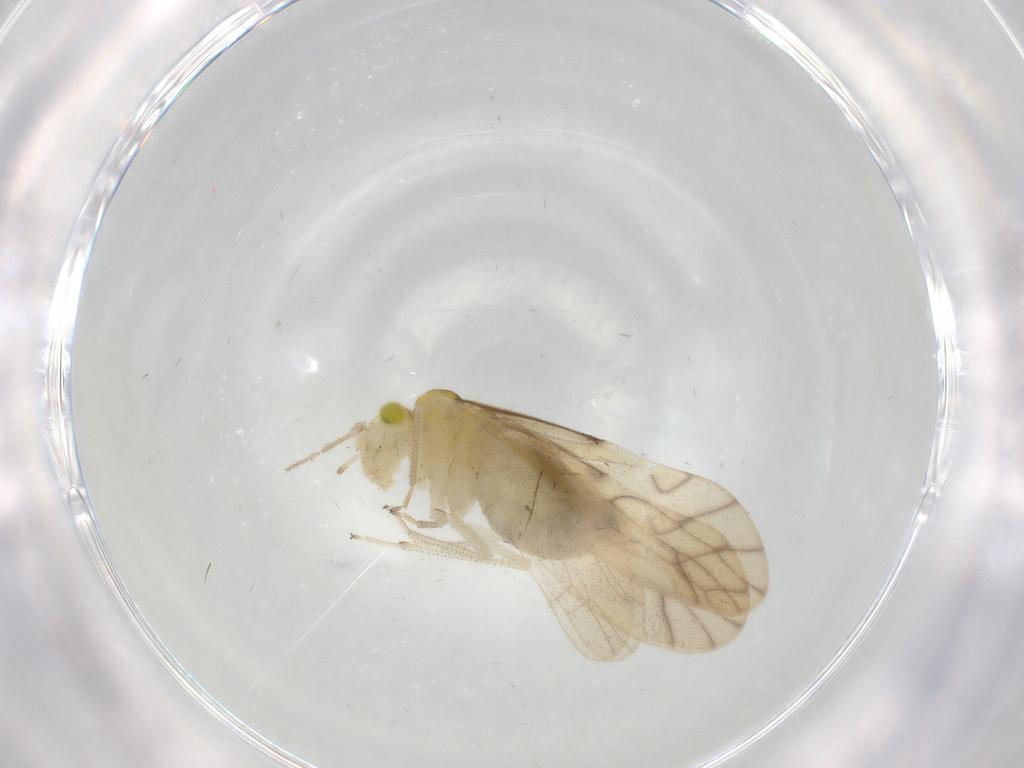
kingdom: Animalia
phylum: Arthropoda
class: Insecta
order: Psocodea
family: Caeciliusidae
